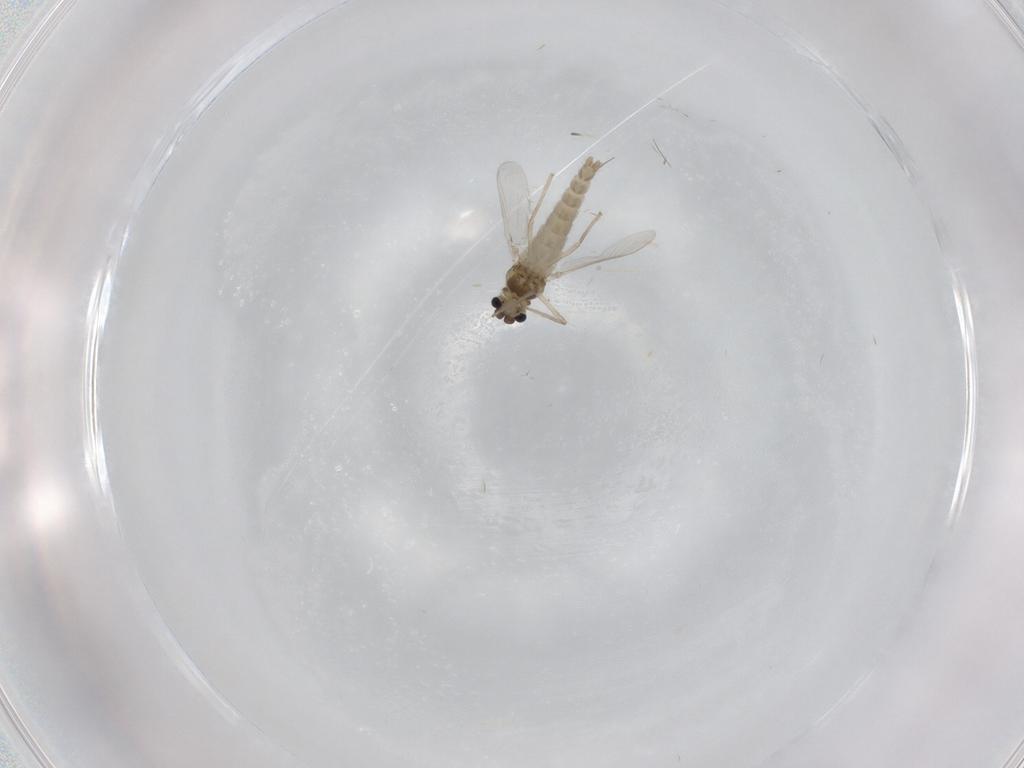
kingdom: Animalia
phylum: Arthropoda
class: Insecta
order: Diptera
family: Chironomidae
